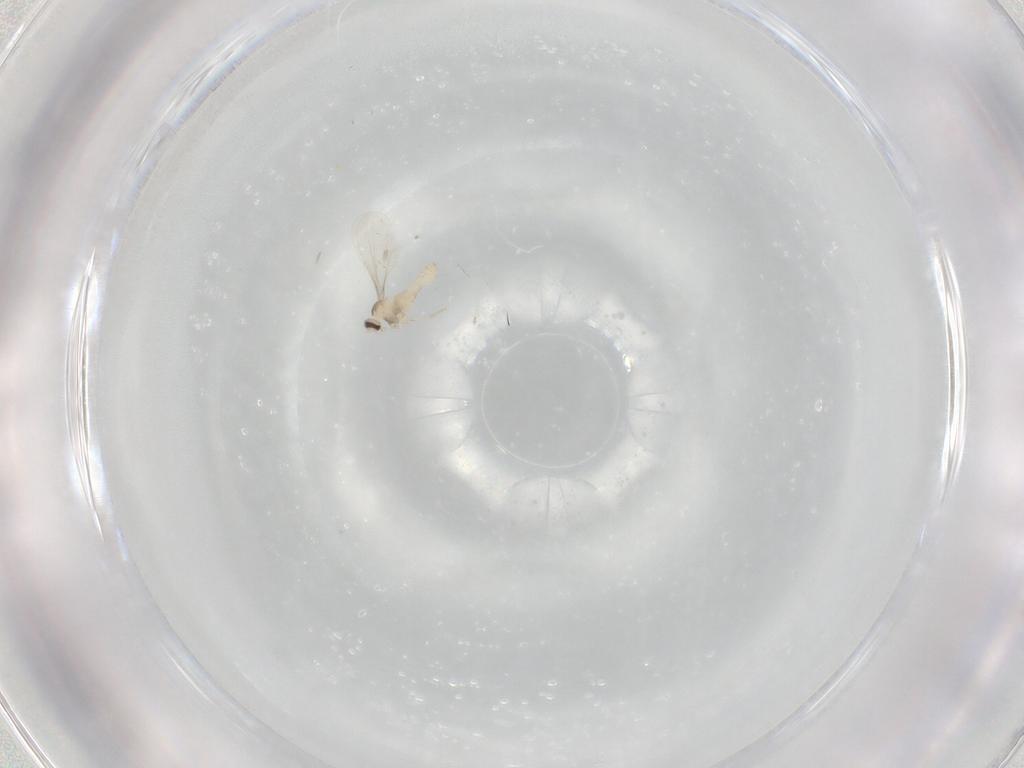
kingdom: Animalia
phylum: Arthropoda
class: Insecta
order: Diptera
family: Cecidomyiidae
